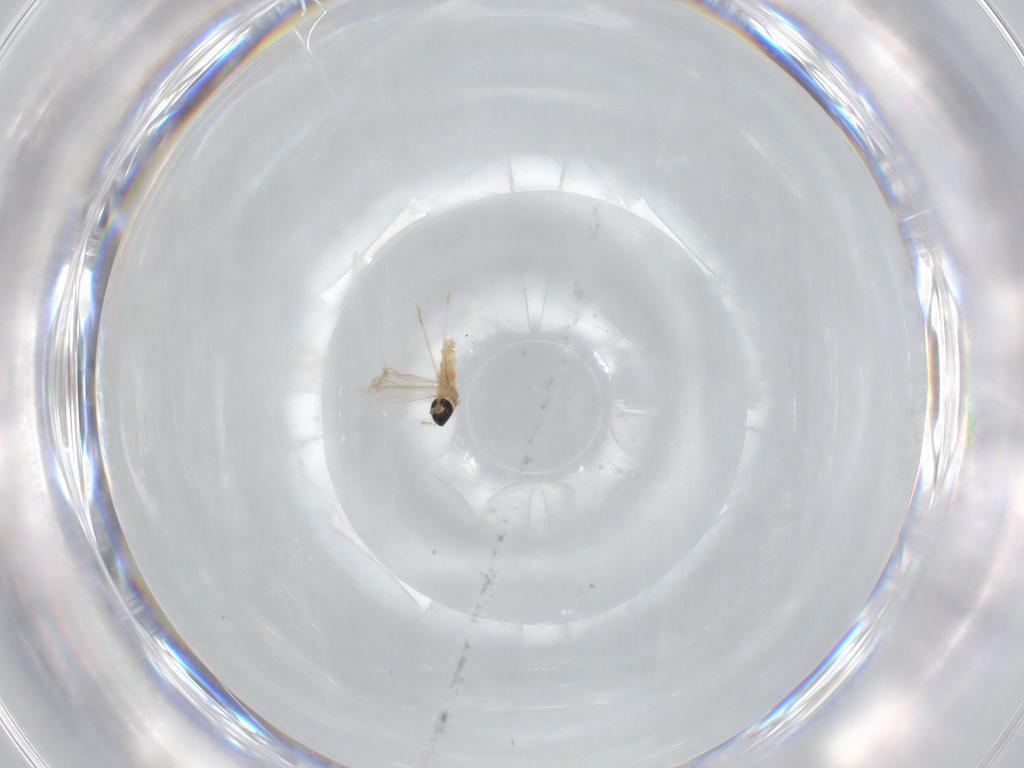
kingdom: Animalia
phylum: Arthropoda
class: Insecta
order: Diptera
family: Cecidomyiidae
